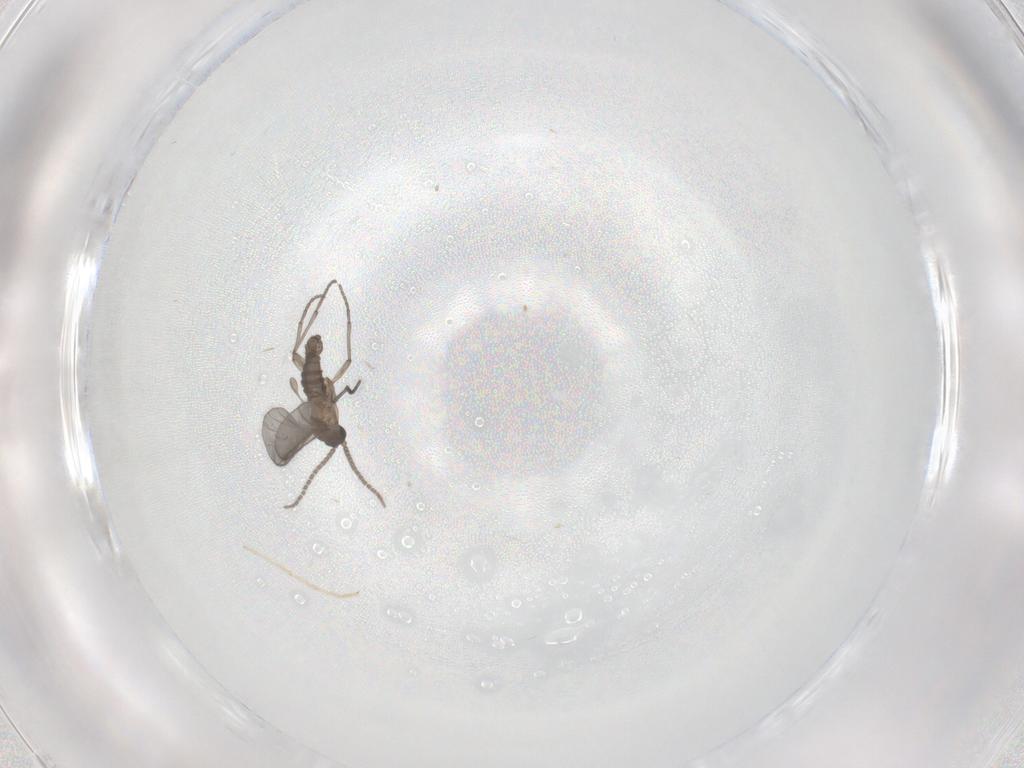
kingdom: Animalia
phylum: Arthropoda
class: Insecta
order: Diptera
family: Sciaridae
